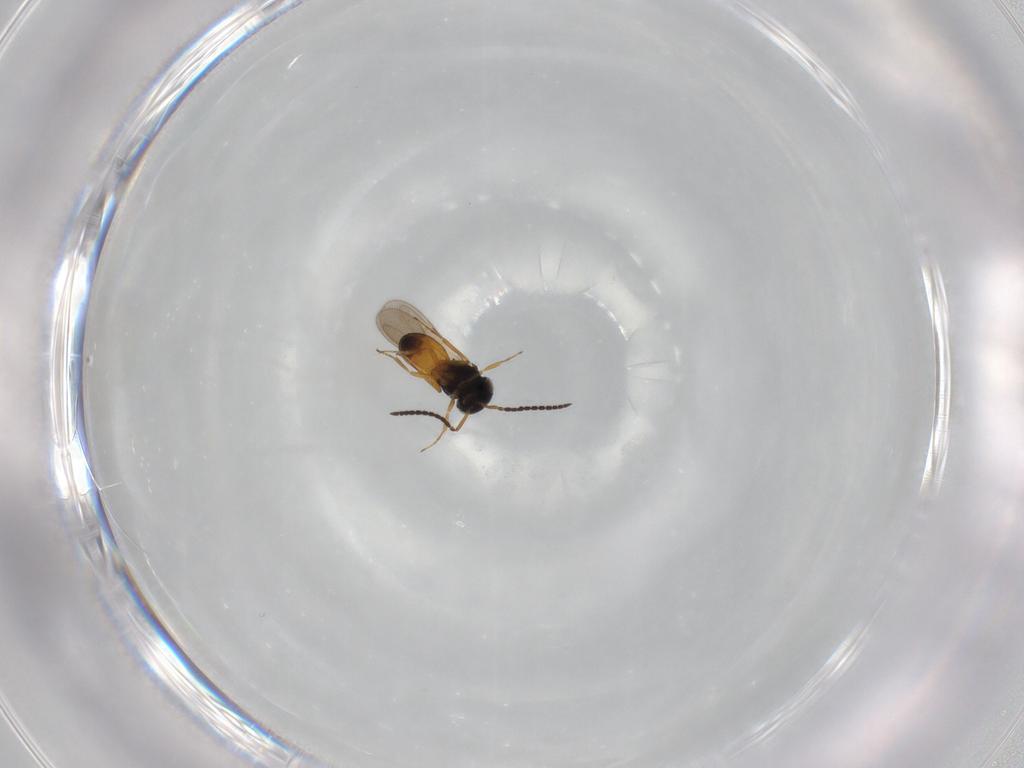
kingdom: Animalia
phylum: Arthropoda
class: Insecta
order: Hymenoptera
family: Scelionidae
